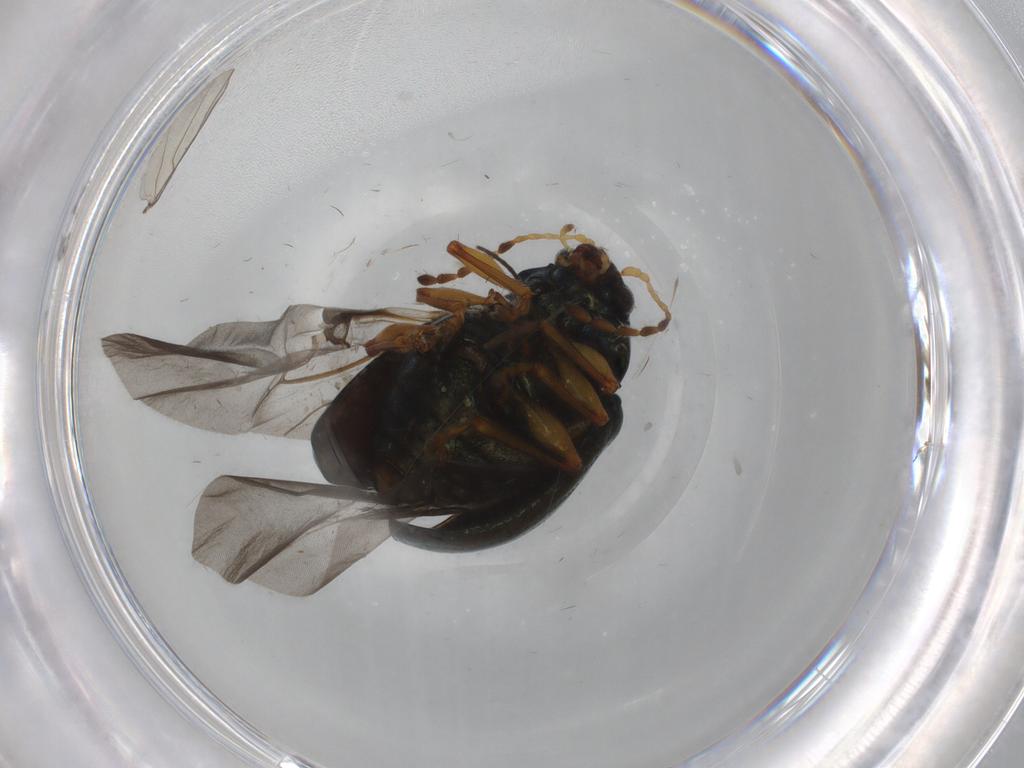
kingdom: Animalia
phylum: Arthropoda
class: Insecta
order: Coleoptera
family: Chrysomelidae
